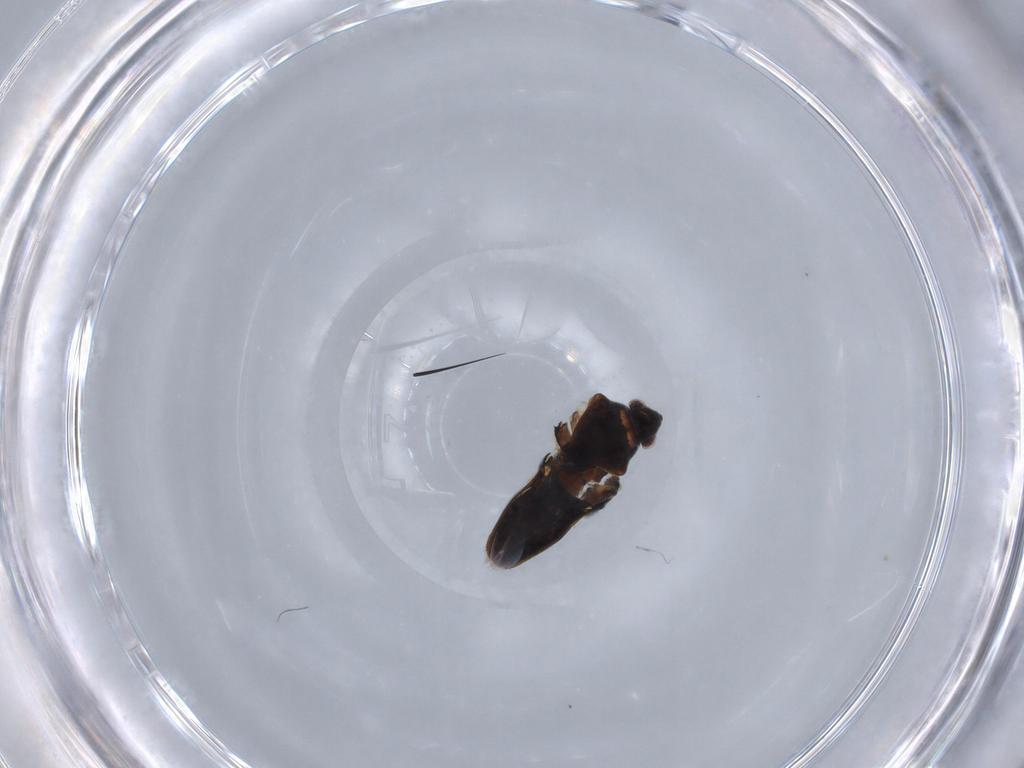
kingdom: Animalia
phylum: Arthropoda
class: Insecta
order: Hemiptera
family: Veliidae
